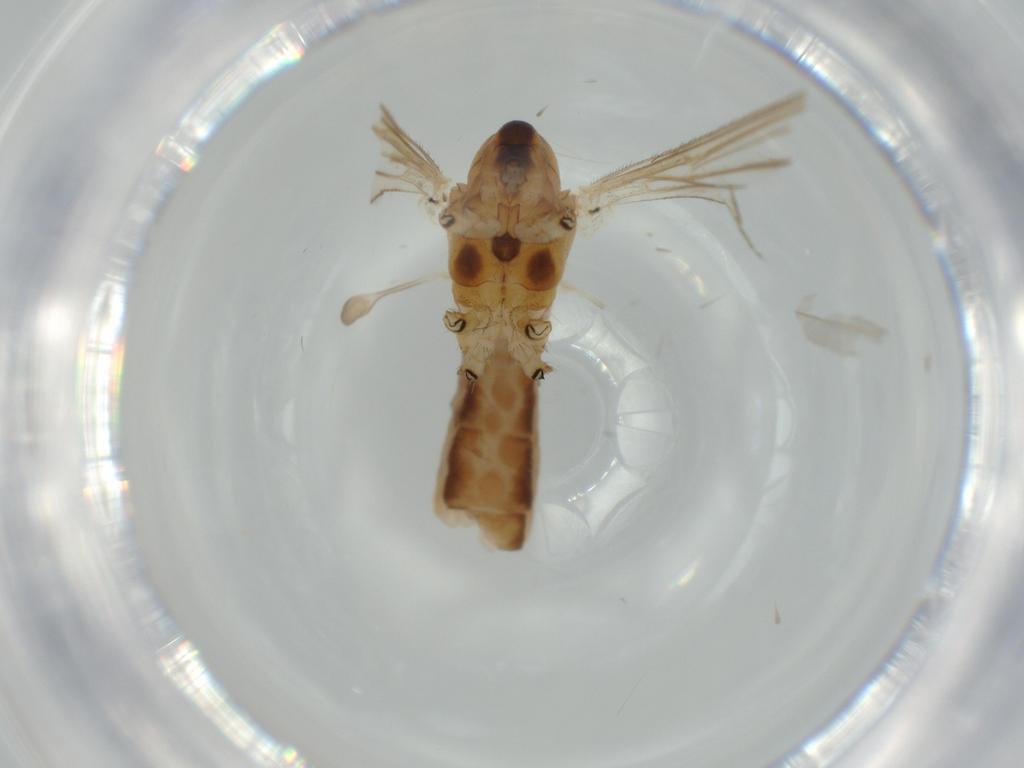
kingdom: Animalia
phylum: Arthropoda
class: Insecta
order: Diptera
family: Limoniidae
